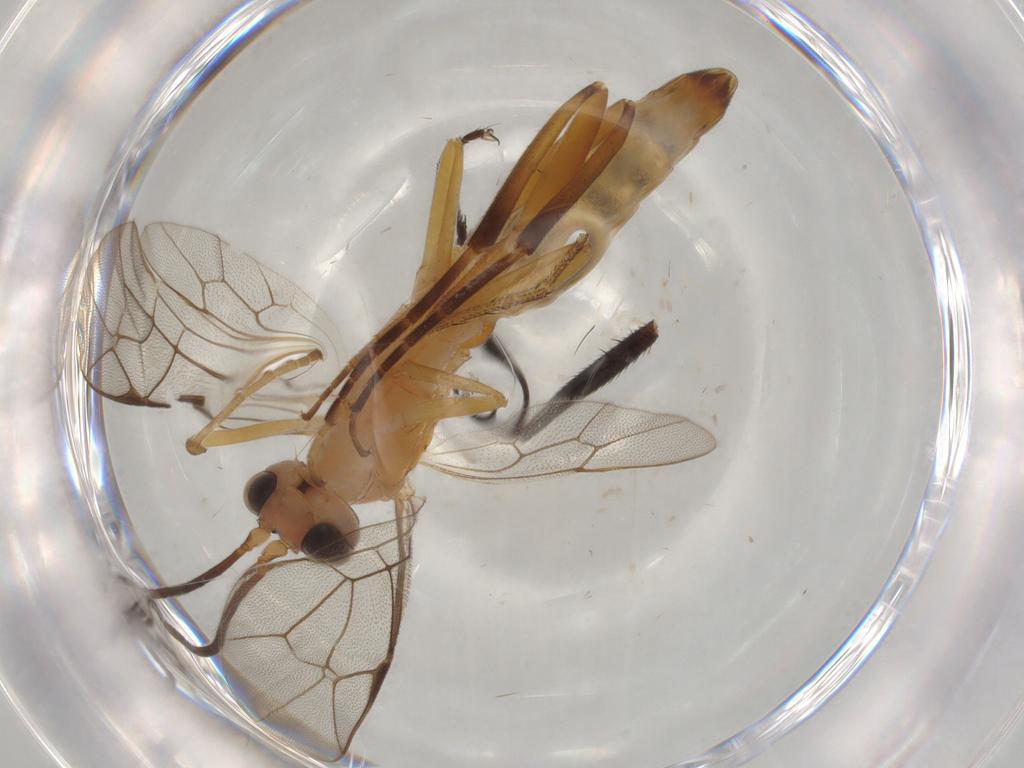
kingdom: Animalia
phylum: Arthropoda
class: Insecta
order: Hymenoptera
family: Ichneumonidae
